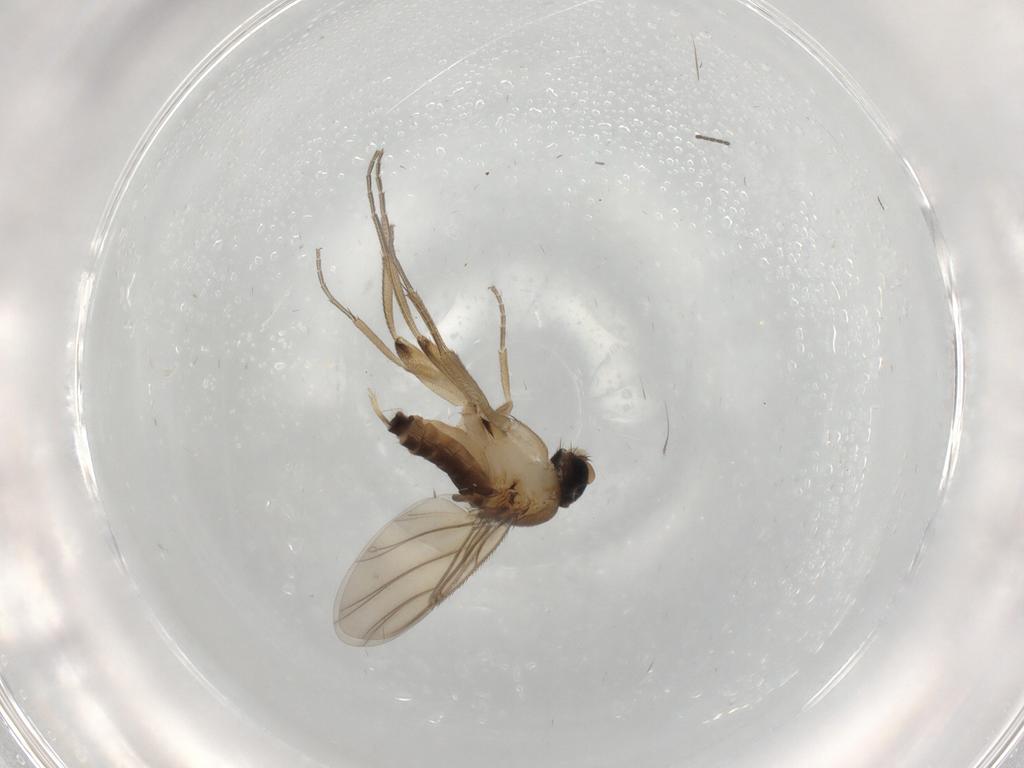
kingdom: Animalia
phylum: Arthropoda
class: Insecta
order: Diptera
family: Phoridae
